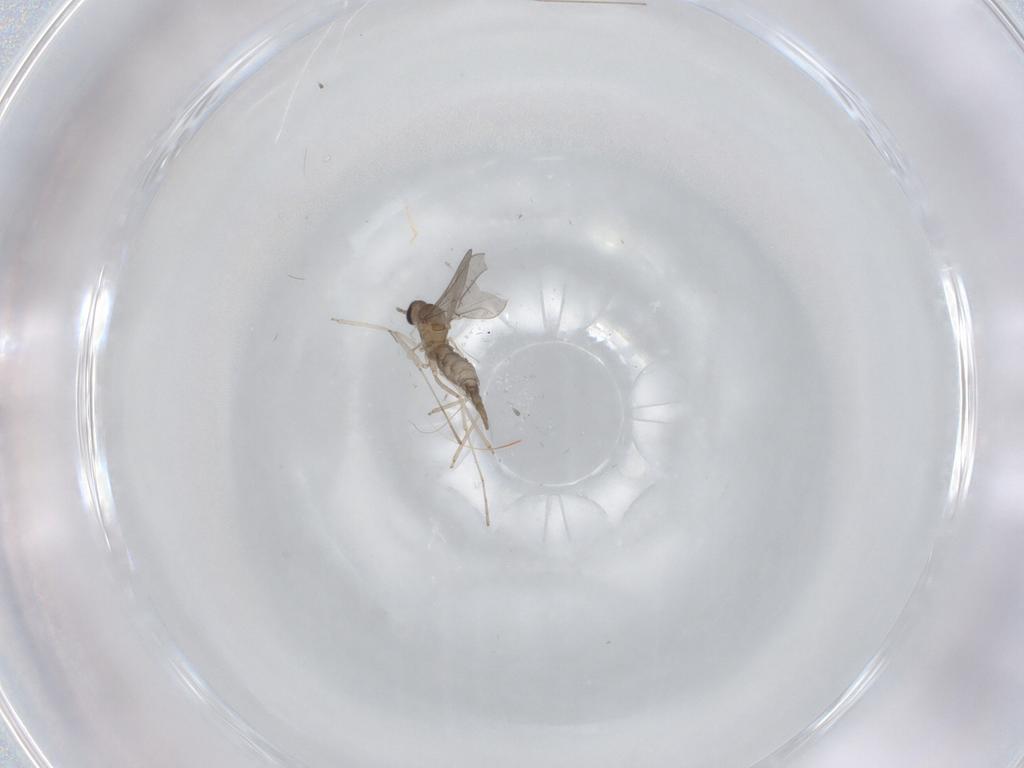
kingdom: Animalia
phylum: Arthropoda
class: Insecta
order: Diptera
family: Cecidomyiidae
